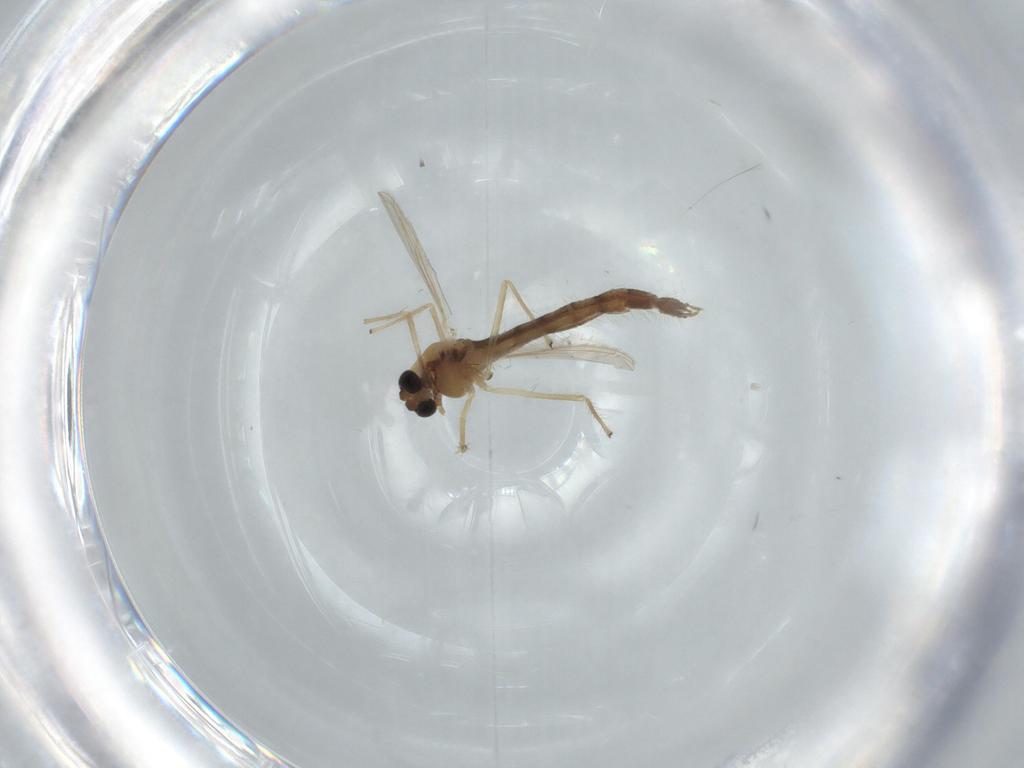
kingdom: Animalia
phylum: Arthropoda
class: Insecta
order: Diptera
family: Chironomidae
